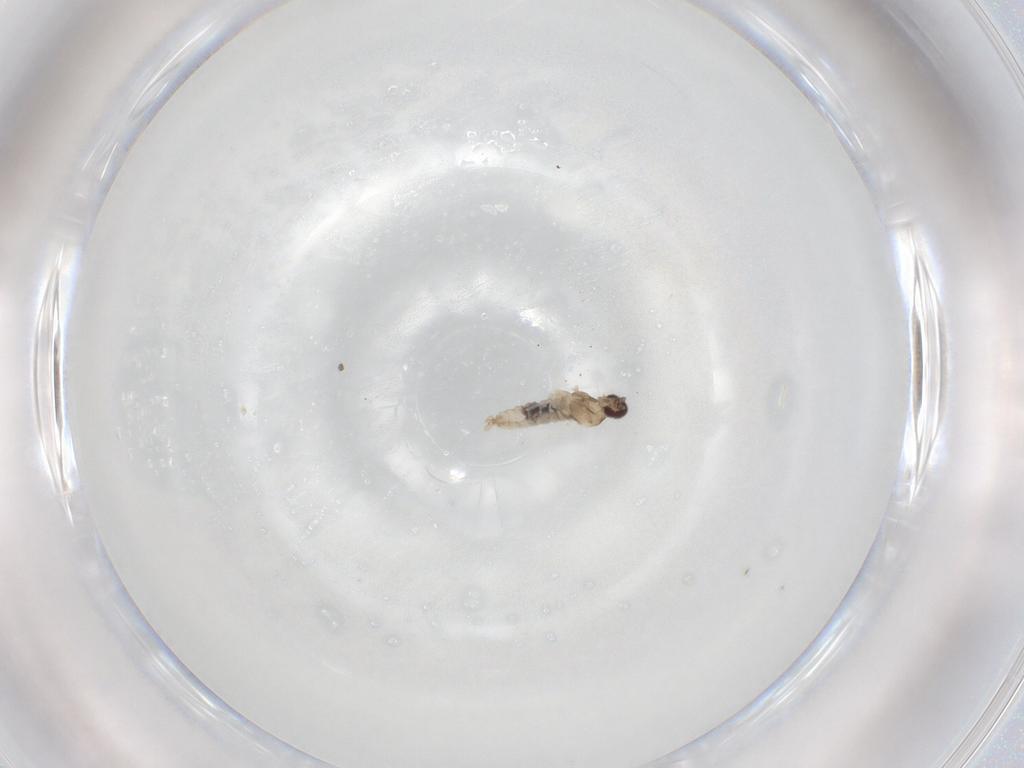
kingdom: Animalia
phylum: Arthropoda
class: Insecta
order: Diptera
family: Cecidomyiidae
